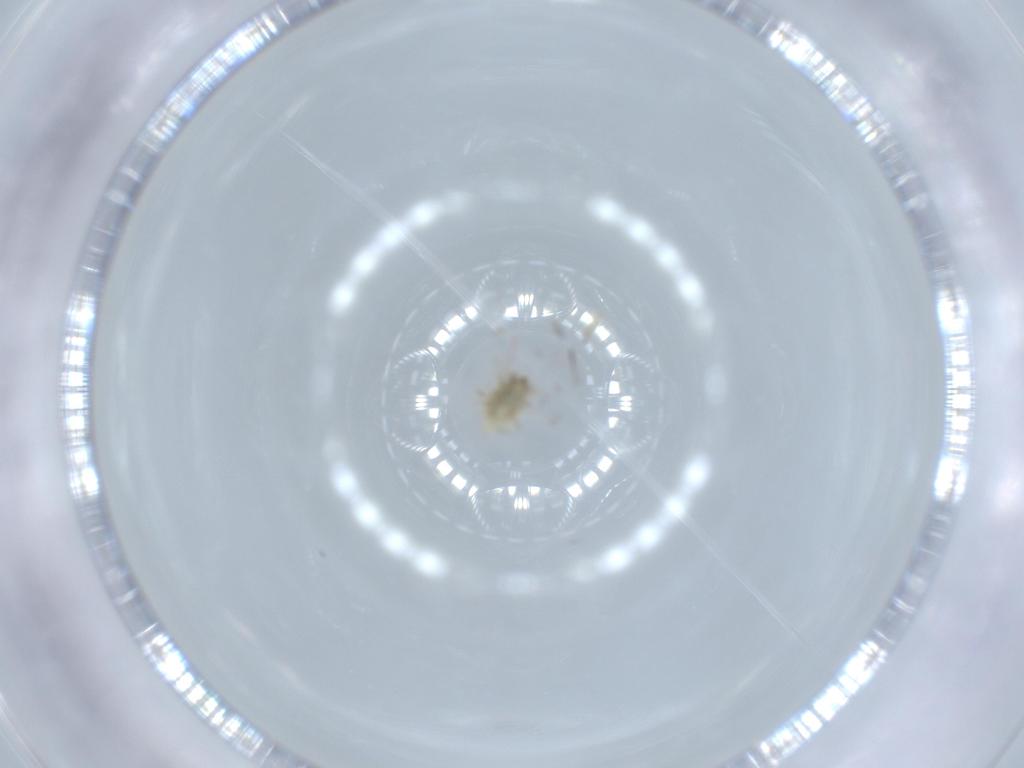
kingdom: Animalia
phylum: Arthropoda
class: Insecta
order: Neuroptera
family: Coniopterygidae
